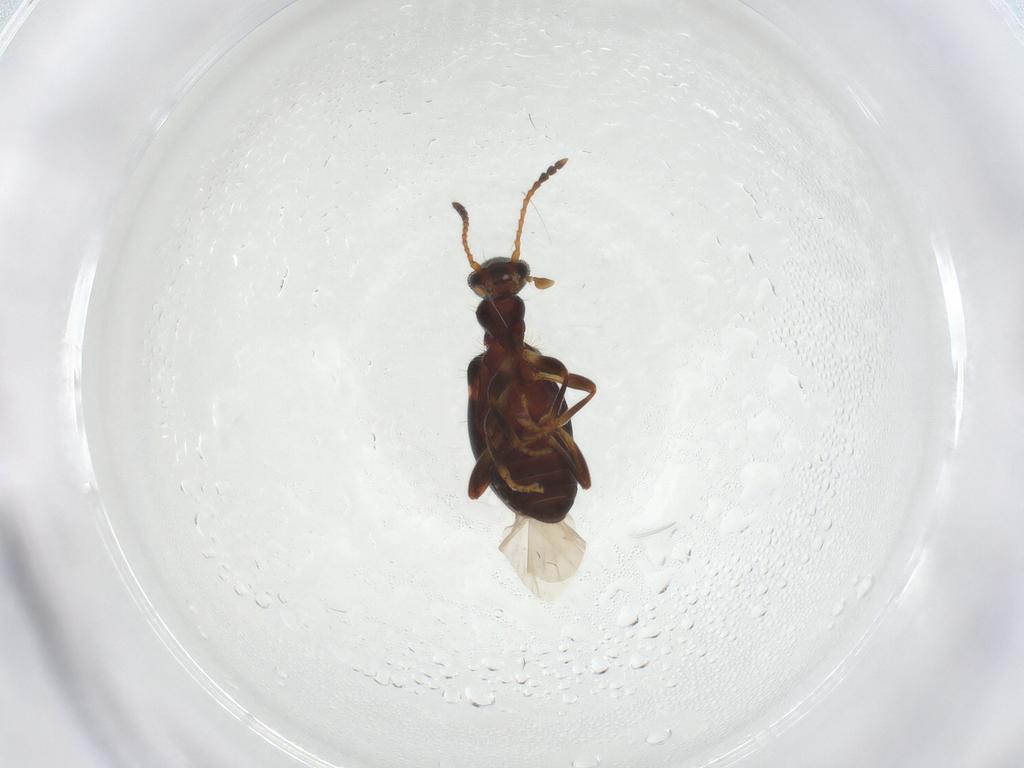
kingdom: Animalia
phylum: Arthropoda
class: Insecta
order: Coleoptera
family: Anthicidae
